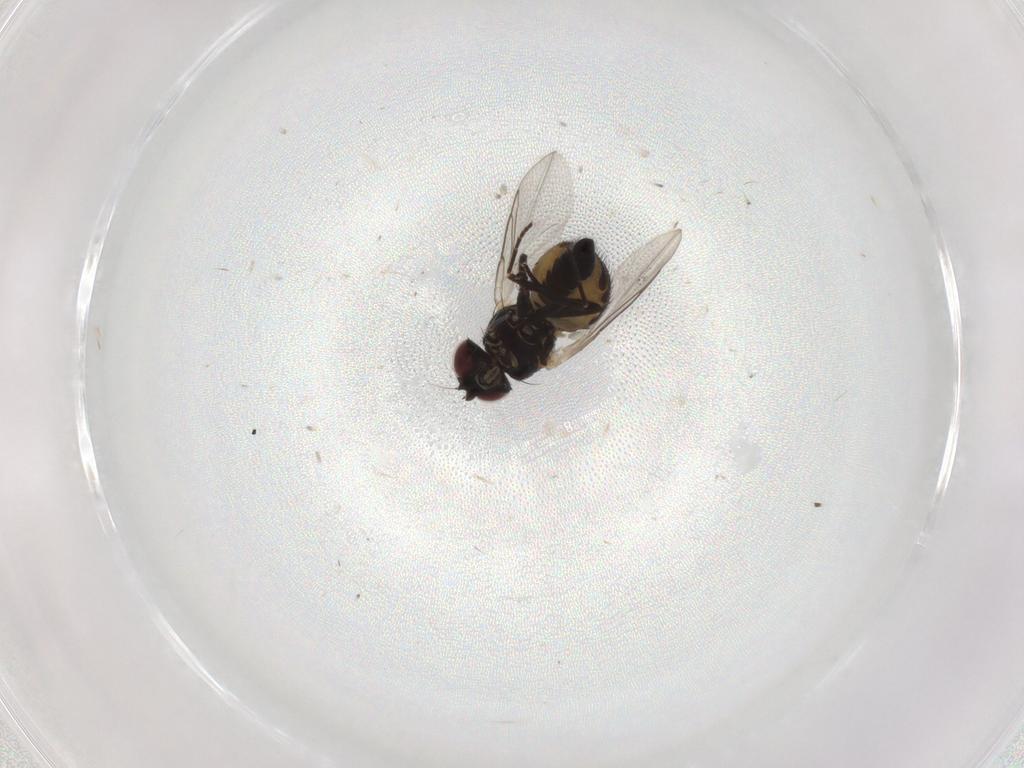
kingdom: Animalia
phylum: Arthropoda
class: Insecta
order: Diptera
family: Agromyzidae
